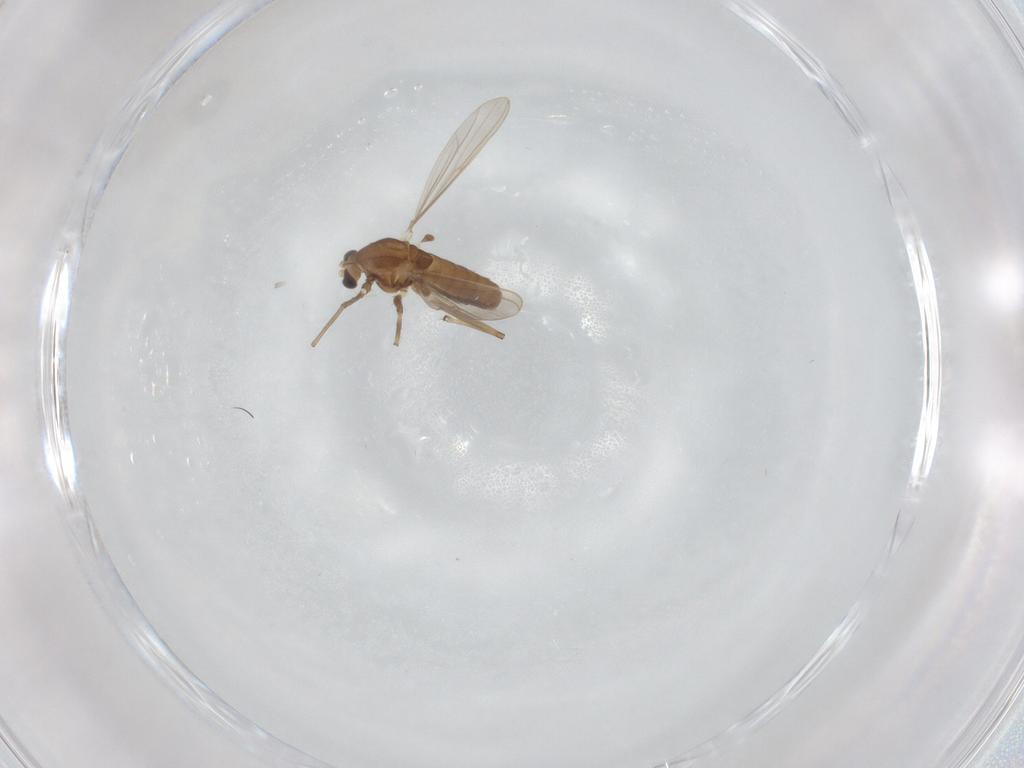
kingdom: Animalia
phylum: Arthropoda
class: Insecta
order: Diptera
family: Chironomidae
